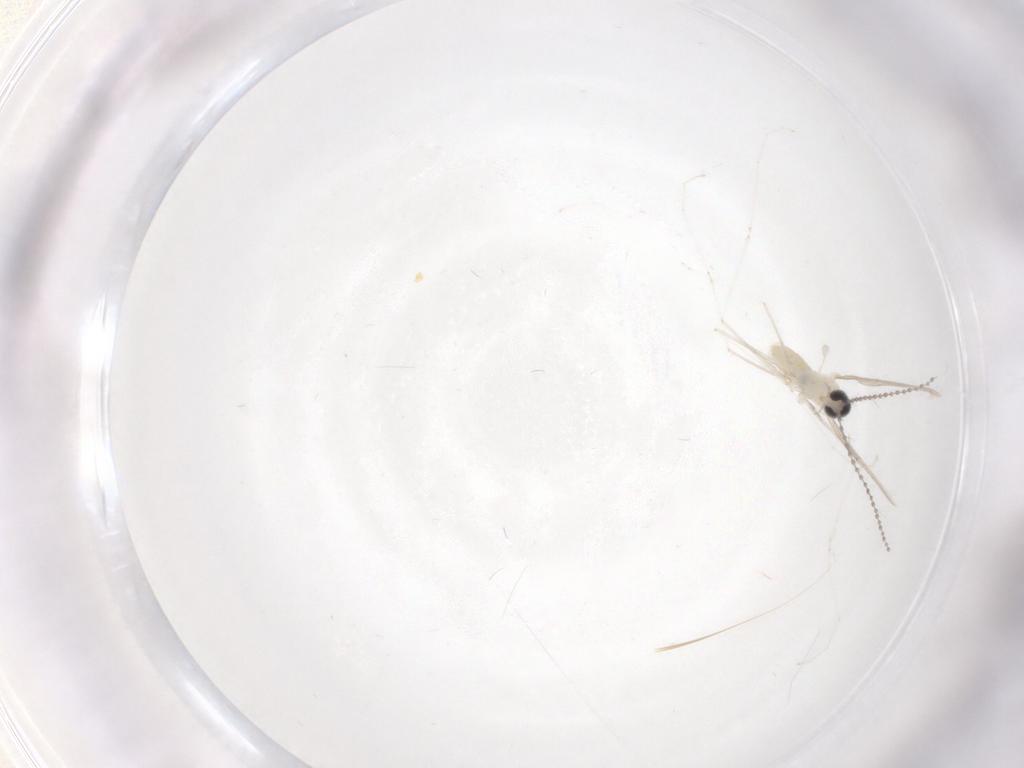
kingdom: Animalia
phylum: Arthropoda
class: Insecta
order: Diptera
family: Cecidomyiidae
